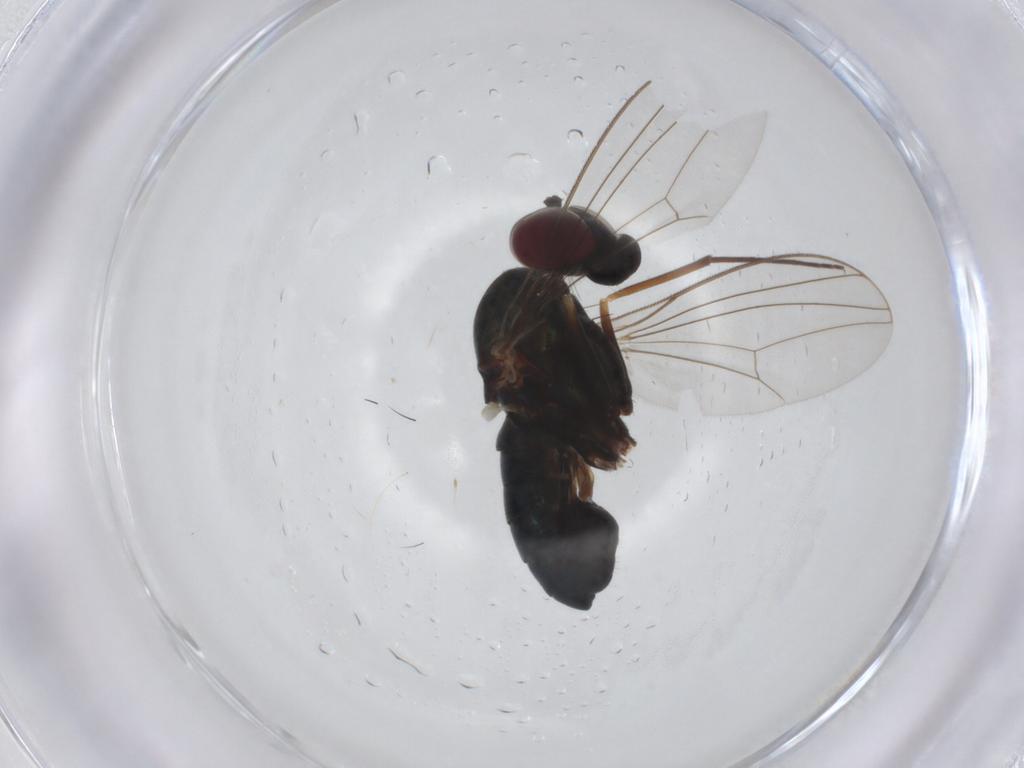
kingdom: Animalia
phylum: Arthropoda
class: Insecta
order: Diptera
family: Dolichopodidae
